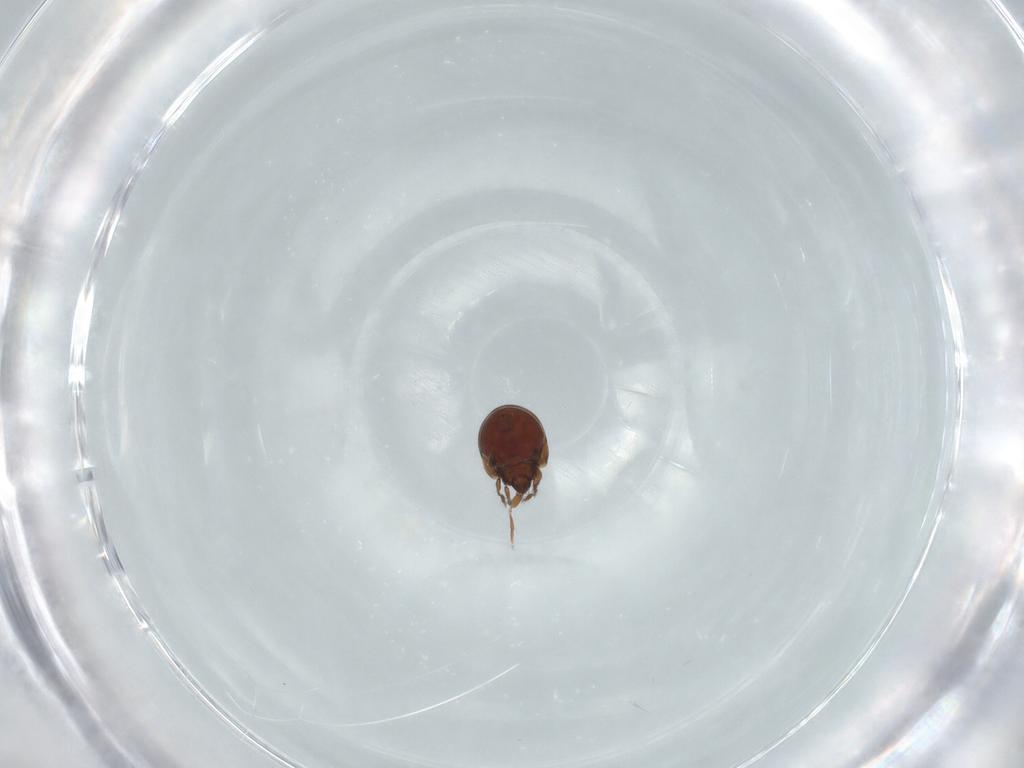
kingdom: Animalia
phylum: Arthropoda
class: Arachnida
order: Sarcoptiformes
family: Mochlozetidae
